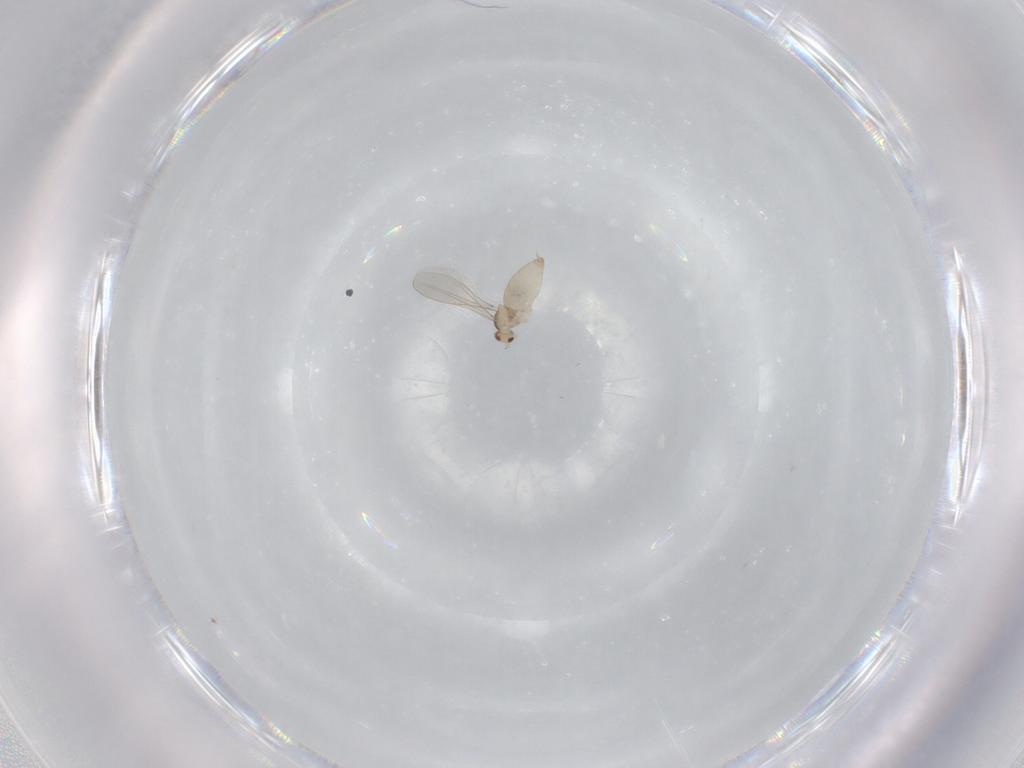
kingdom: Animalia
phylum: Arthropoda
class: Insecta
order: Diptera
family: Cecidomyiidae
